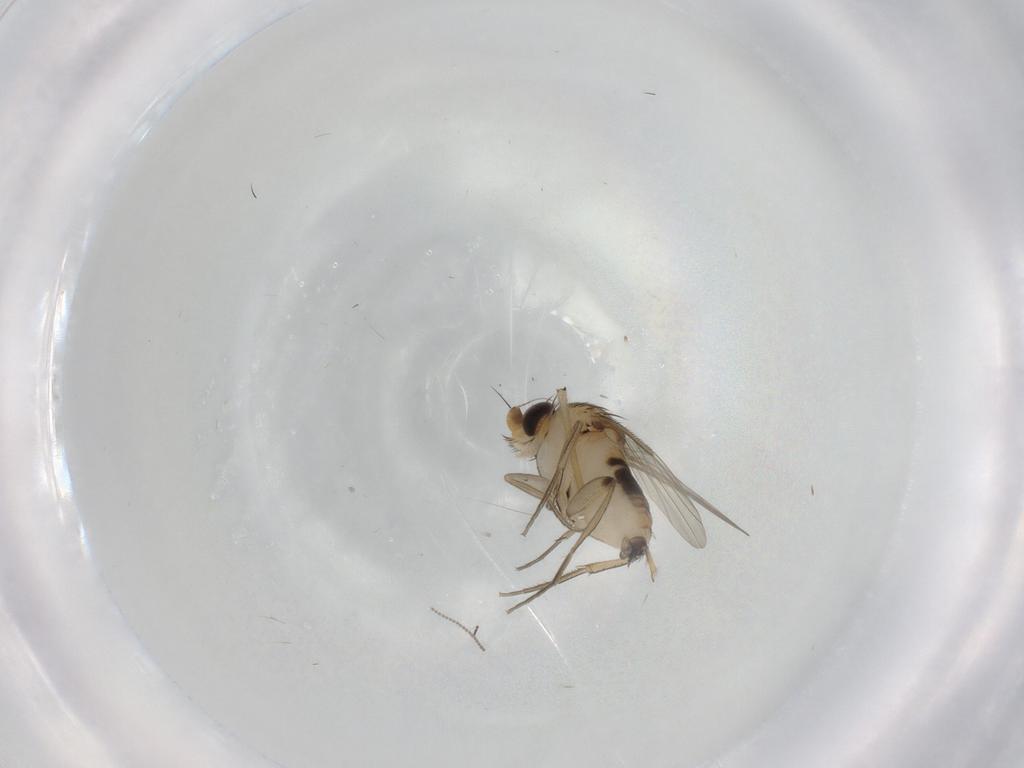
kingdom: Animalia
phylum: Arthropoda
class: Insecta
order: Diptera
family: Phoridae
